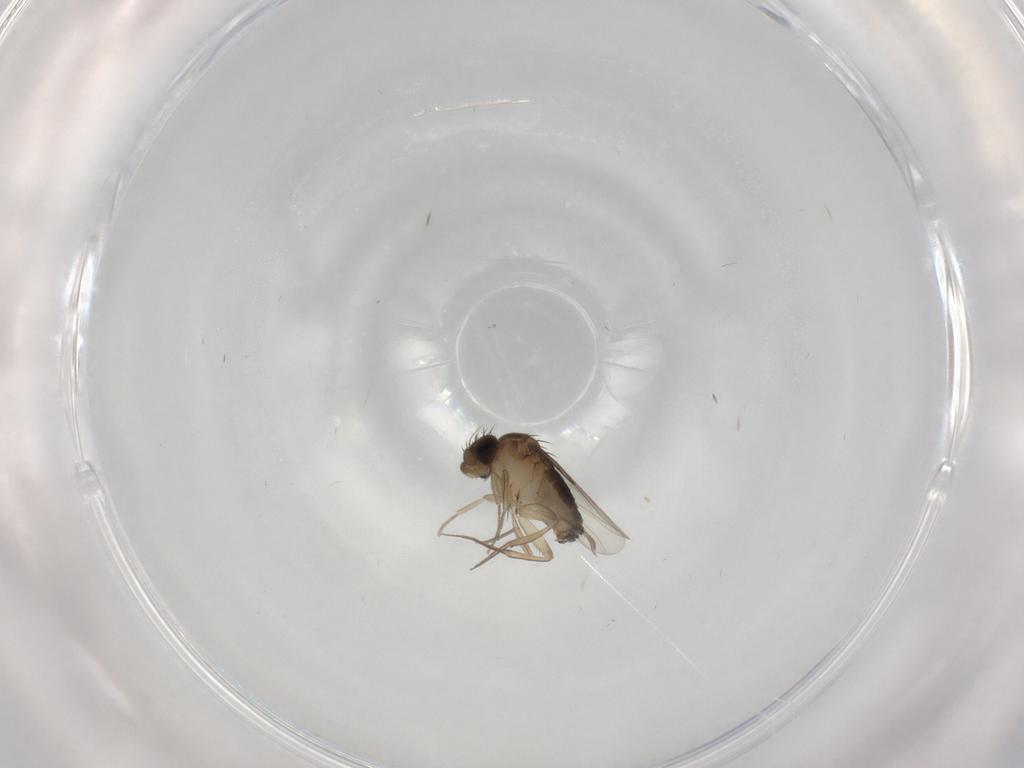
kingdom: Animalia
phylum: Arthropoda
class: Insecta
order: Diptera
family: Phoridae
